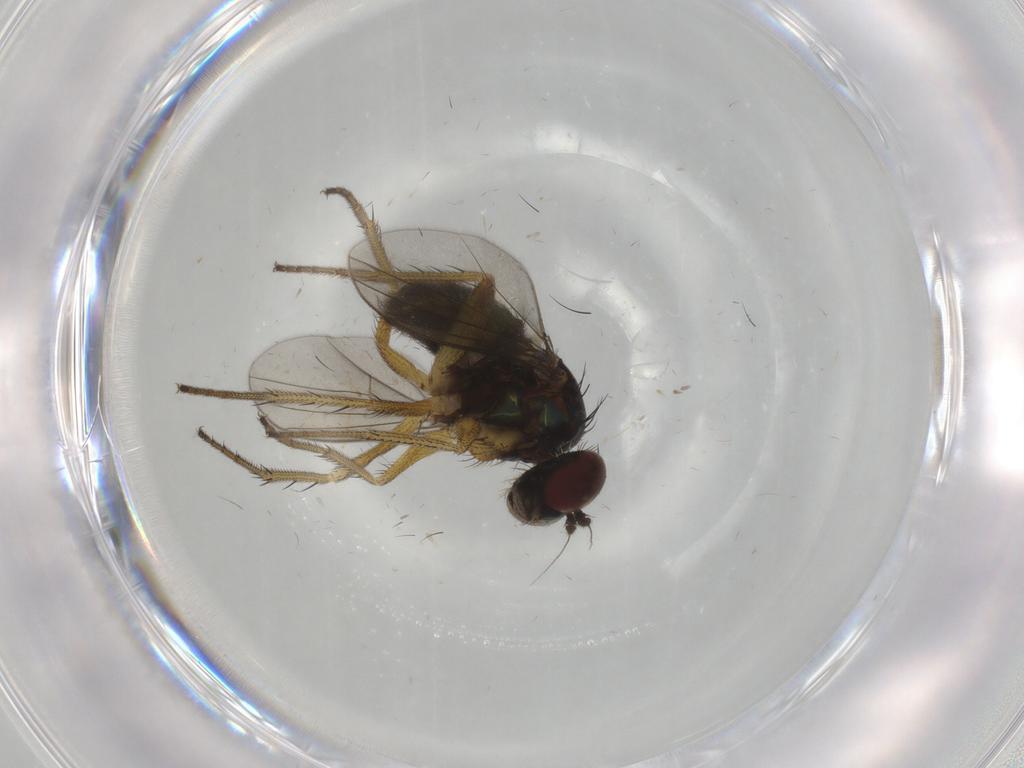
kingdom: Animalia
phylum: Arthropoda
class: Insecta
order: Diptera
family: Dolichopodidae
